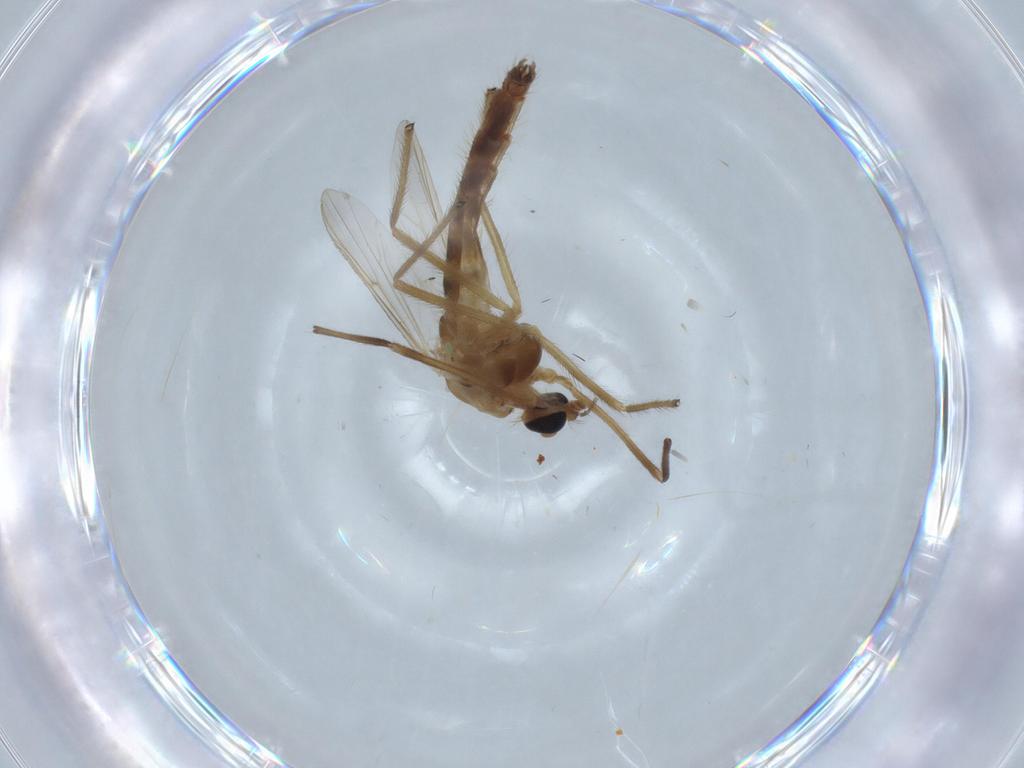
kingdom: Animalia
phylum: Arthropoda
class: Insecta
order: Diptera
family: Chironomidae
